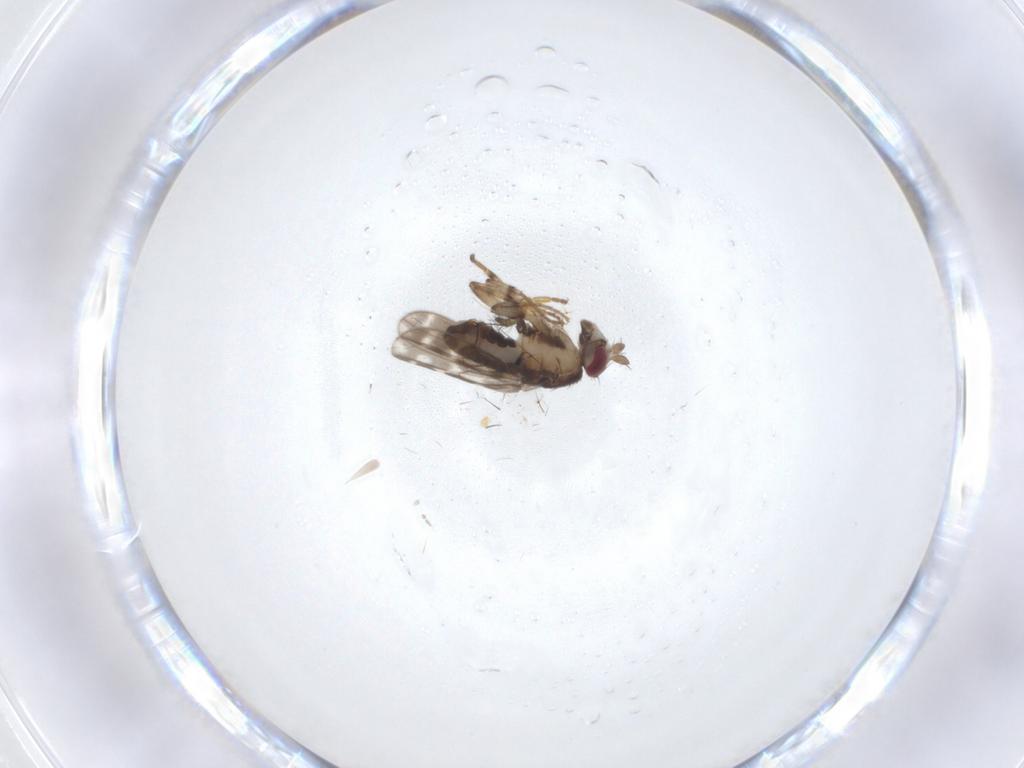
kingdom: Animalia
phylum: Arthropoda
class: Insecta
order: Diptera
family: Sphaeroceridae
